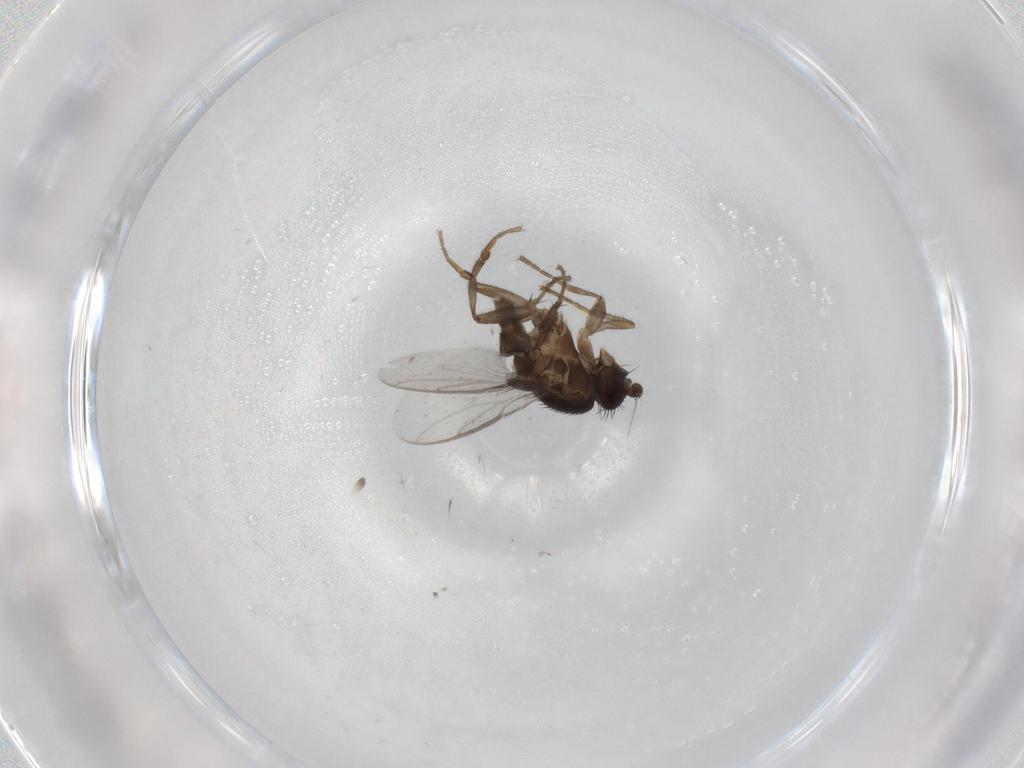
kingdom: Animalia
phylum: Arthropoda
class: Insecta
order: Diptera
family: Sphaeroceridae
